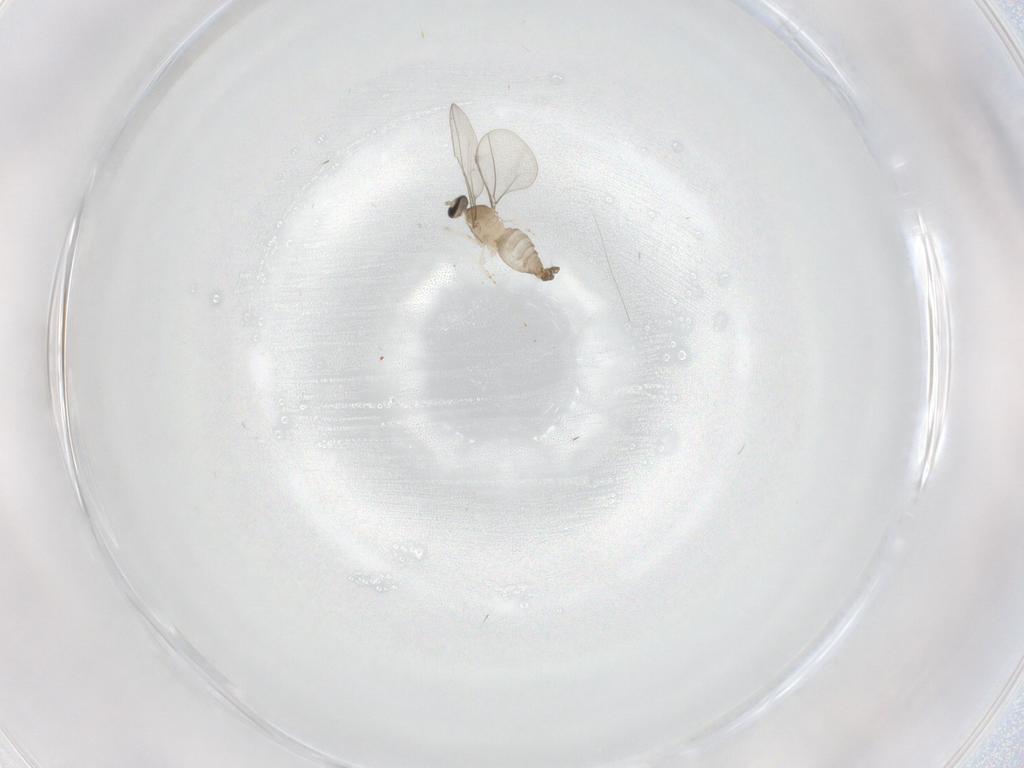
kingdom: Animalia
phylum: Arthropoda
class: Insecta
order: Diptera
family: Cecidomyiidae
